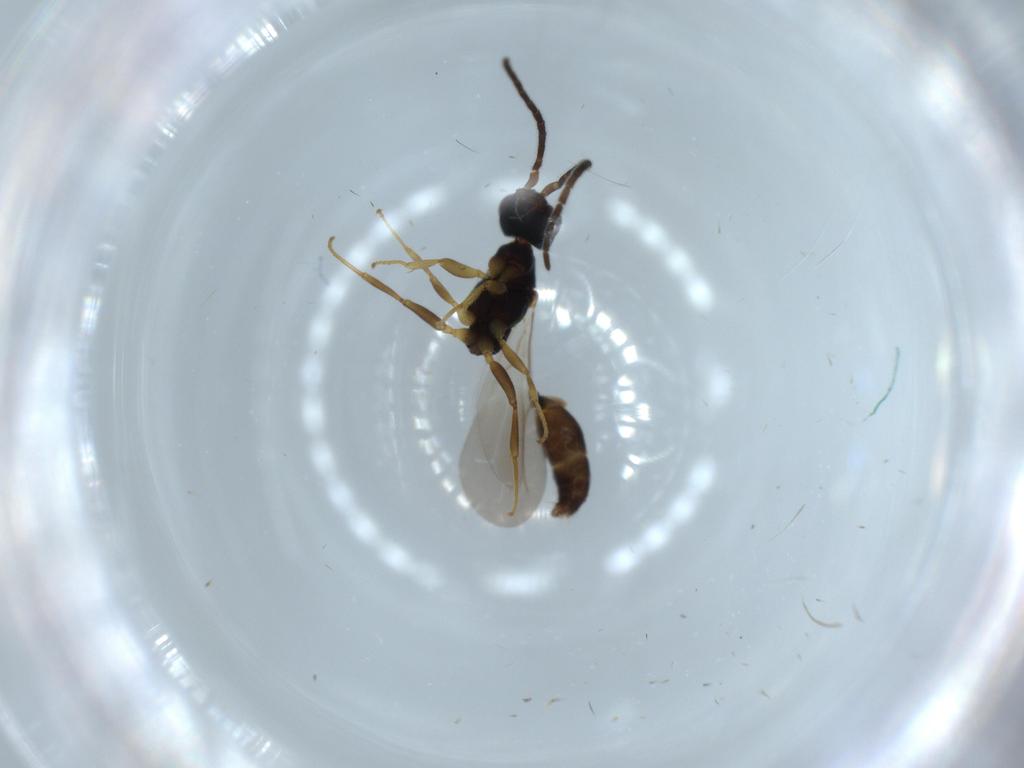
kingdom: Animalia
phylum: Arthropoda
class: Insecta
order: Hymenoptera
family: Bethylidae
